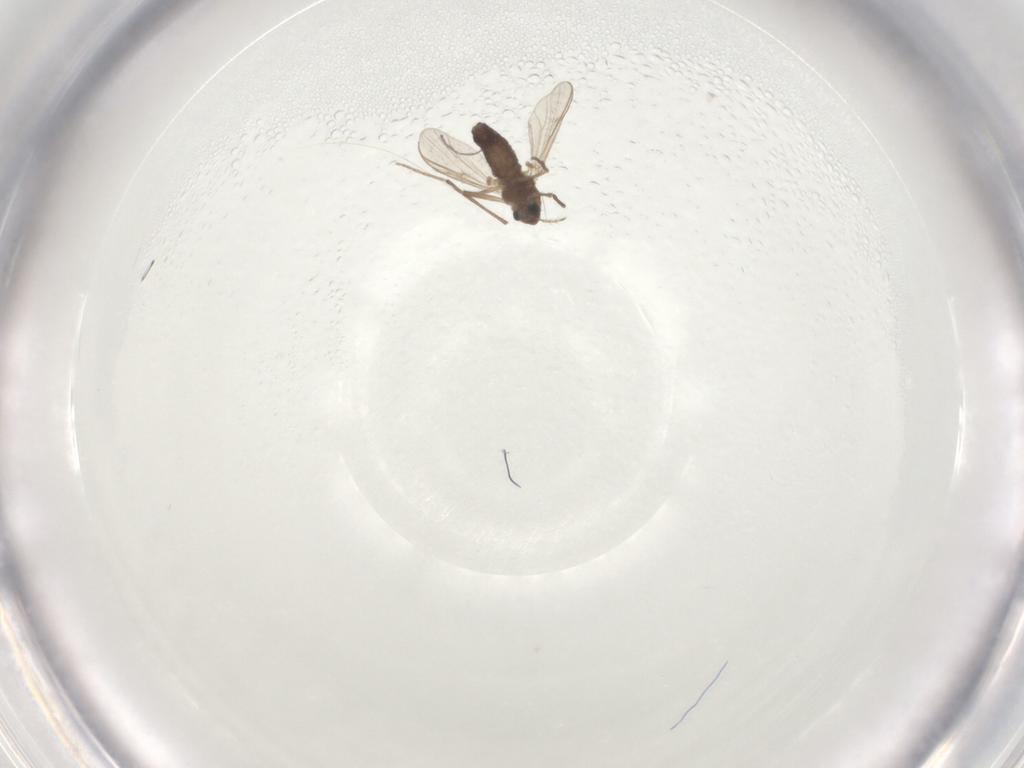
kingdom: Animalia
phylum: Arthropoda
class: Insecta
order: Diptera
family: Chironomidae
